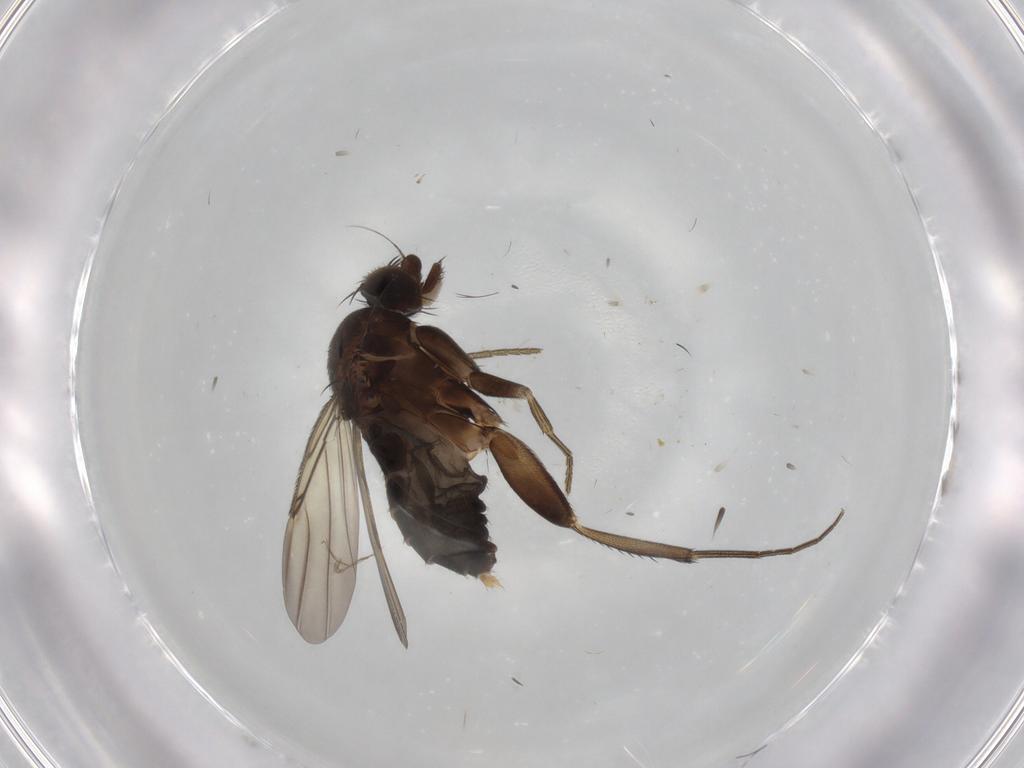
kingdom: Animalia
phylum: Arthropoda
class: Insecta
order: Diptera
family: Phoridae
